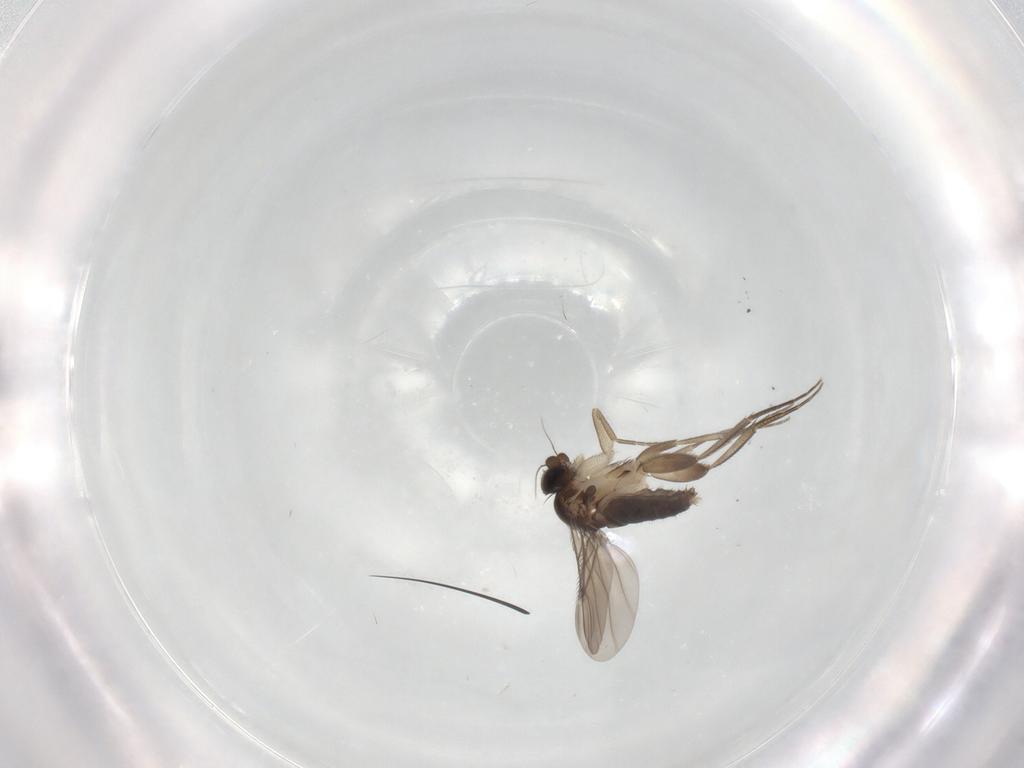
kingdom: Animalia
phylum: Arthropoda
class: Insecta
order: Diptera
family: Phoridae
